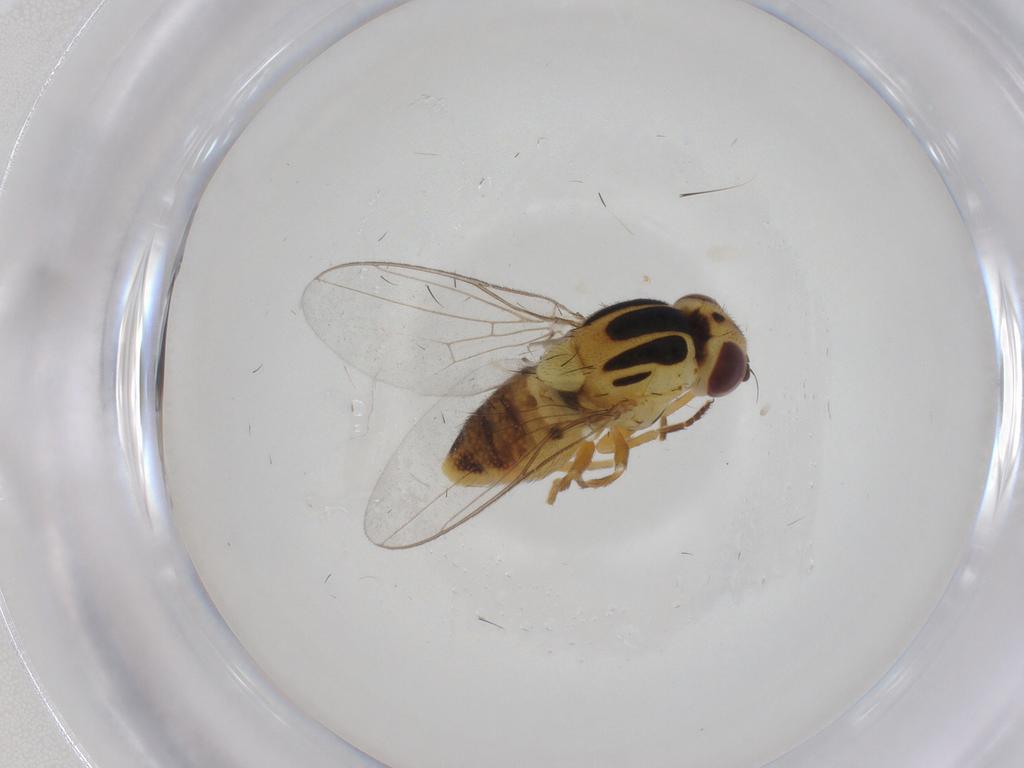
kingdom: Animalia
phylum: Arthropoda
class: Insecta
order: Diptera
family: Chloropidae
